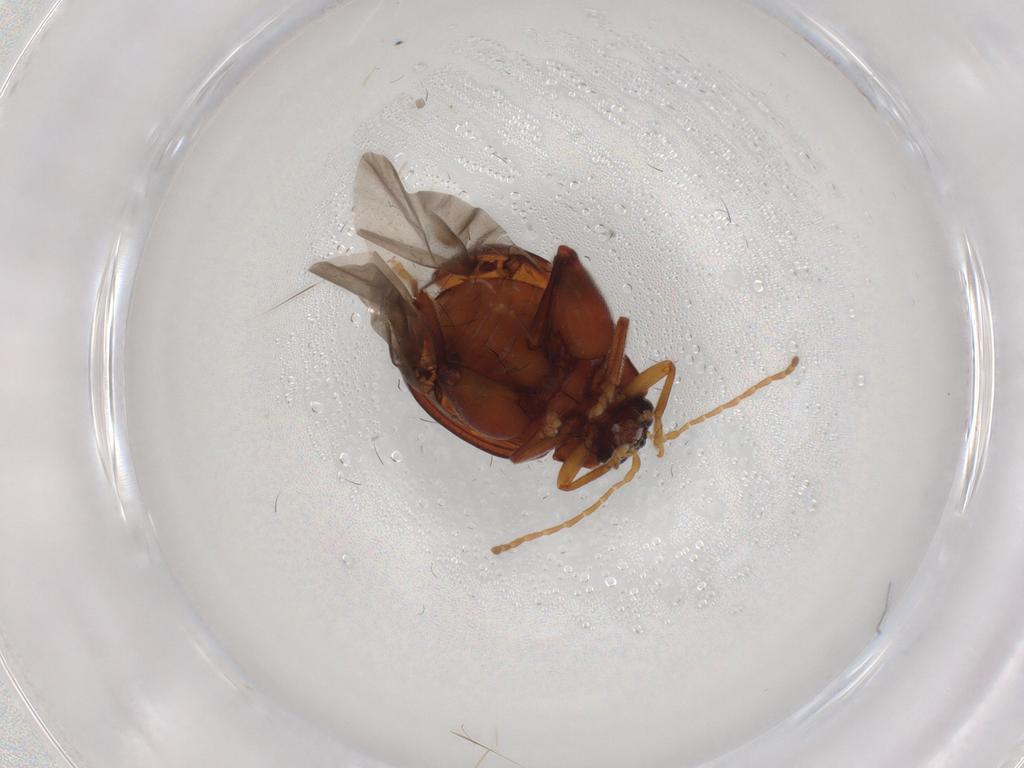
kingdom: Animalia
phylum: Arthropoda
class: Insecta
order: Coleoptera
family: Chrysomelidae
